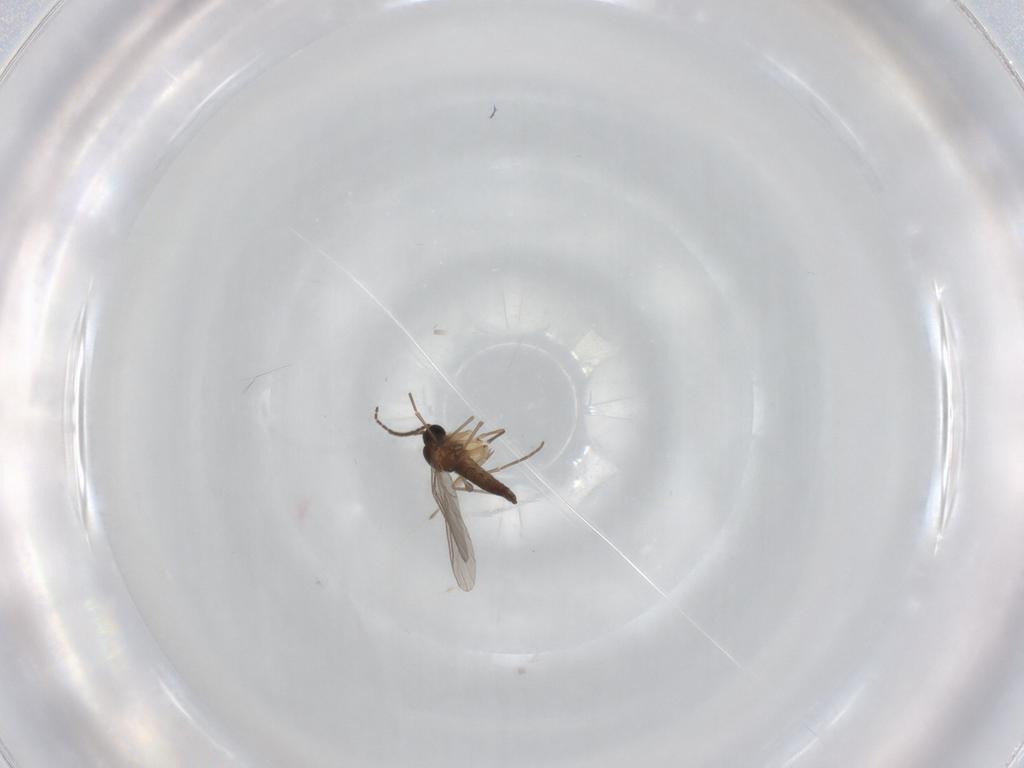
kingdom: Animalia
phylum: Arthropoda
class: Insecta
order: Diptera
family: Sciaridae
